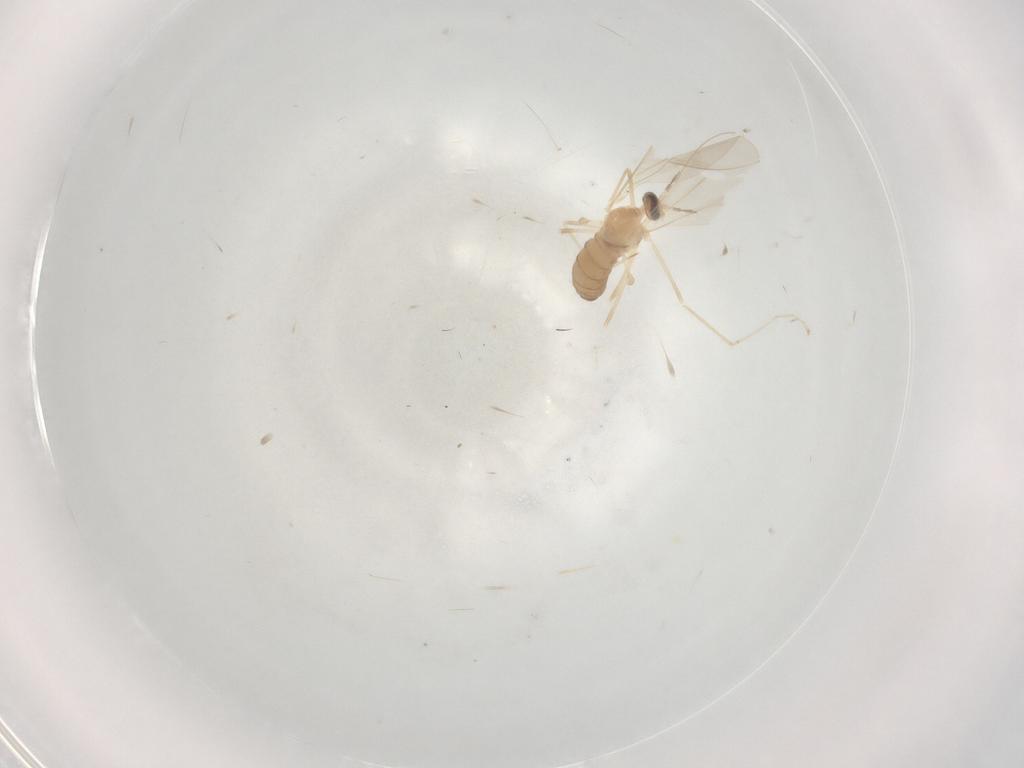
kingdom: Animalia
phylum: Arthropoda
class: Insecta
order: Diptera
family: Cecidomyiidae
